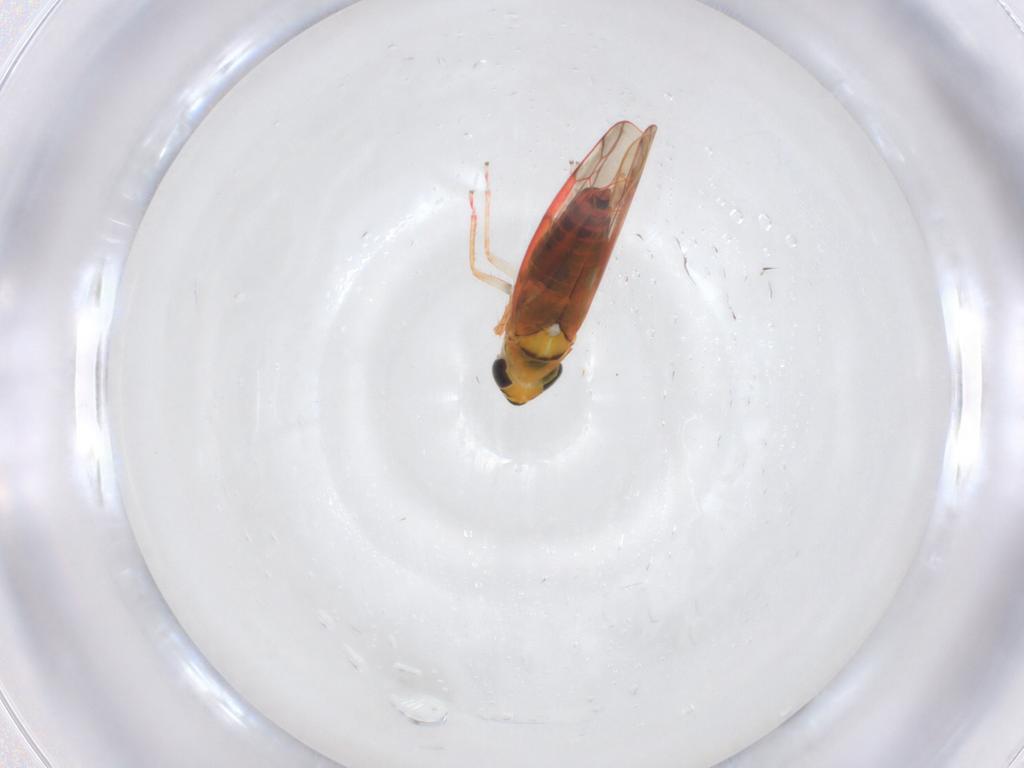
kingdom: Animalia
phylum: Arthropoda
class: Insecta
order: Hemiptera
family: Cicadellidae
